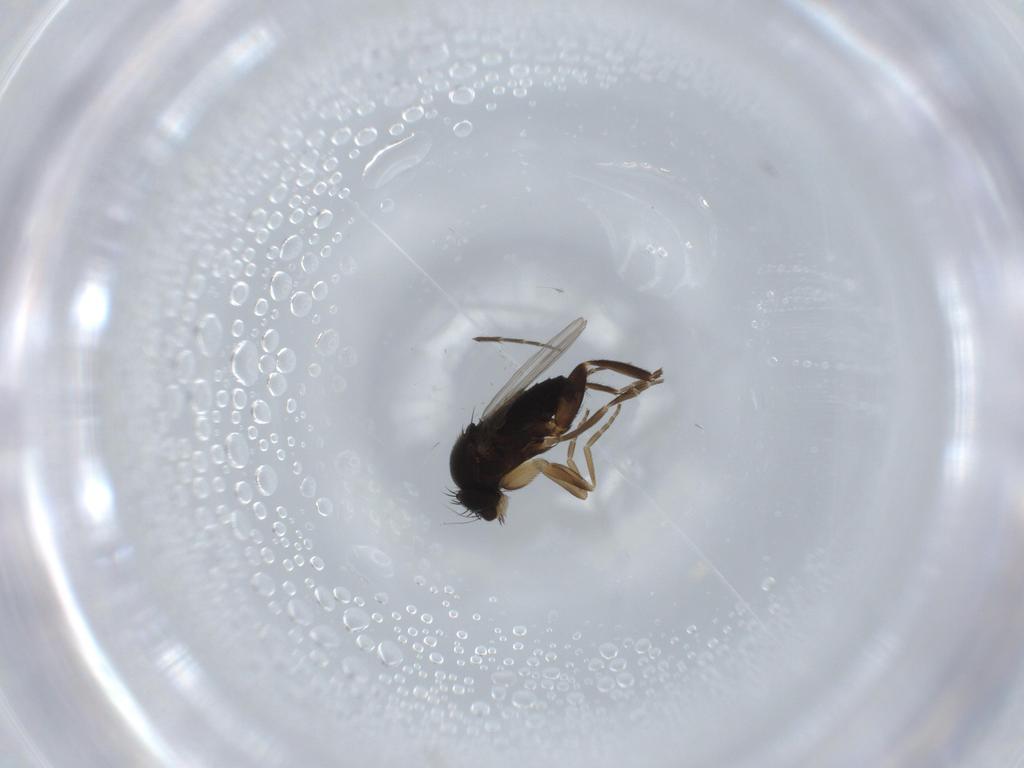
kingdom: Animalia
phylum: Arthropoda
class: Insecta
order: Diptera
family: Phoridae
